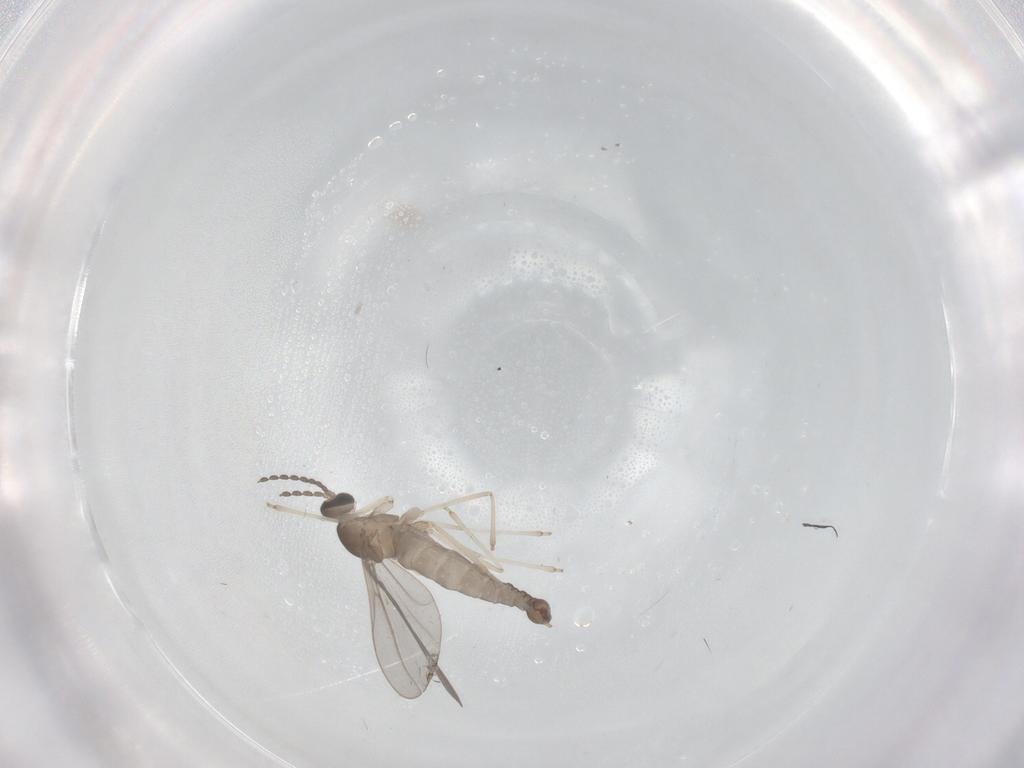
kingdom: Animalia
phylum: Arthropoda
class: Insecta
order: Diptera
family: Cecidomyiidae
